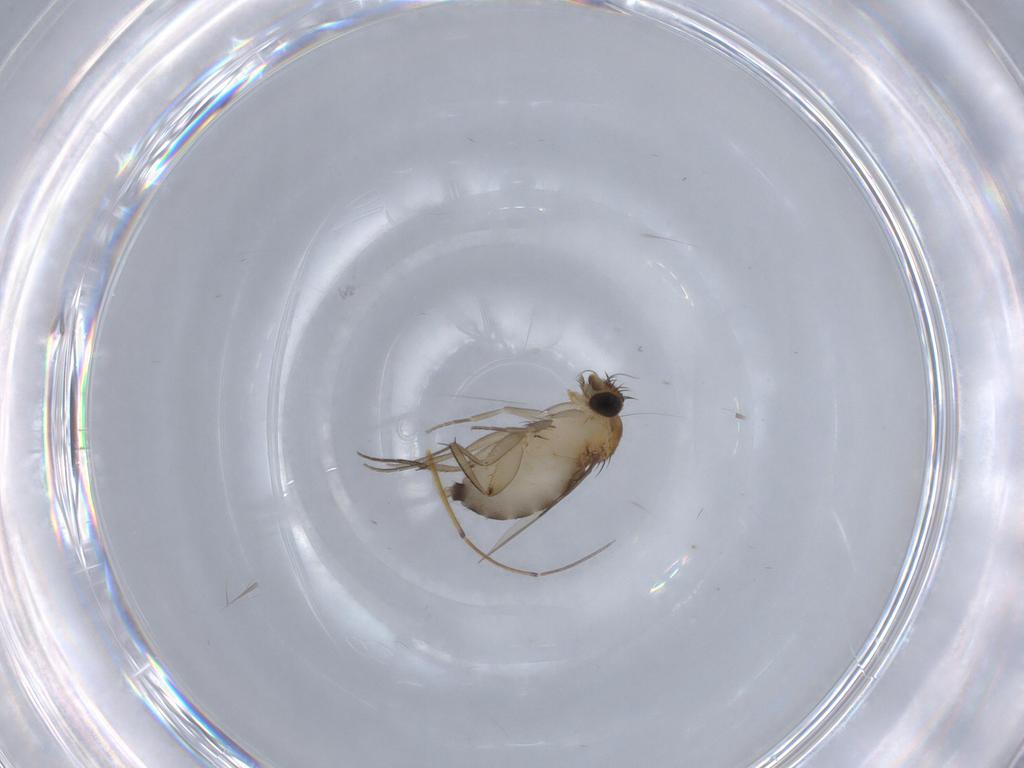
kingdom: Animalia
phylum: Arthropoda
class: Insecta
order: Diptera
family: Phoridae
